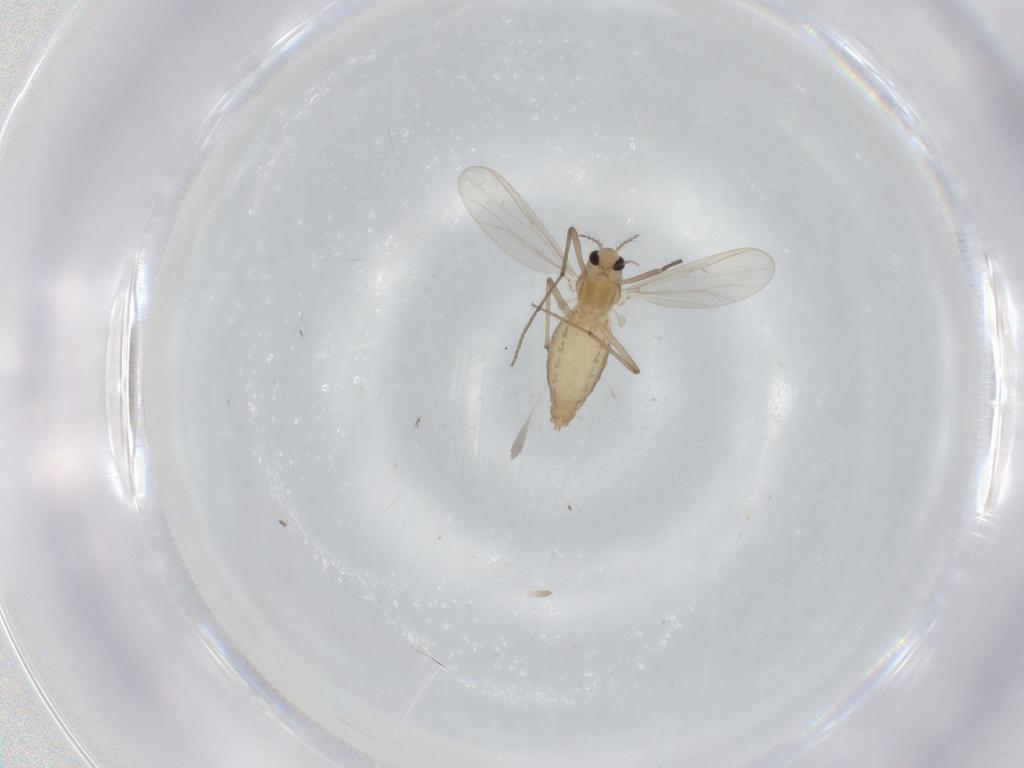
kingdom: Animalia
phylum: Arthropoda
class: Insecta
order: Diptera
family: Chironomidae
